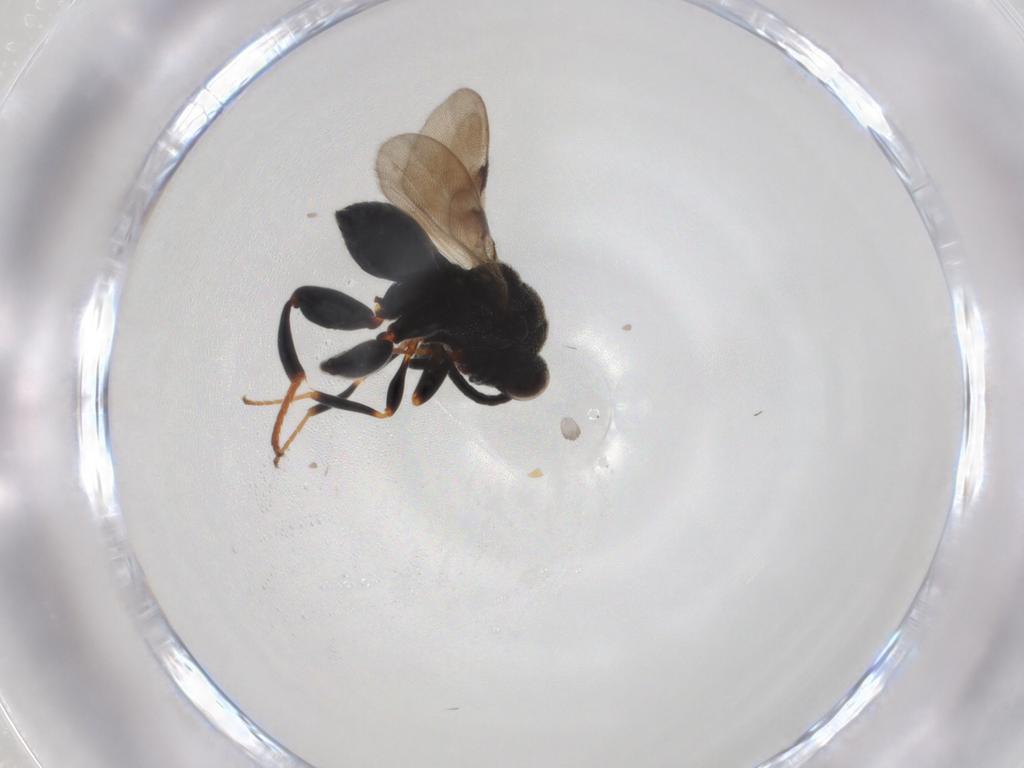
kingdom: Animalia
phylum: Arthropoda
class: Insecta
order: Hymenoptera
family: Chalcididae
